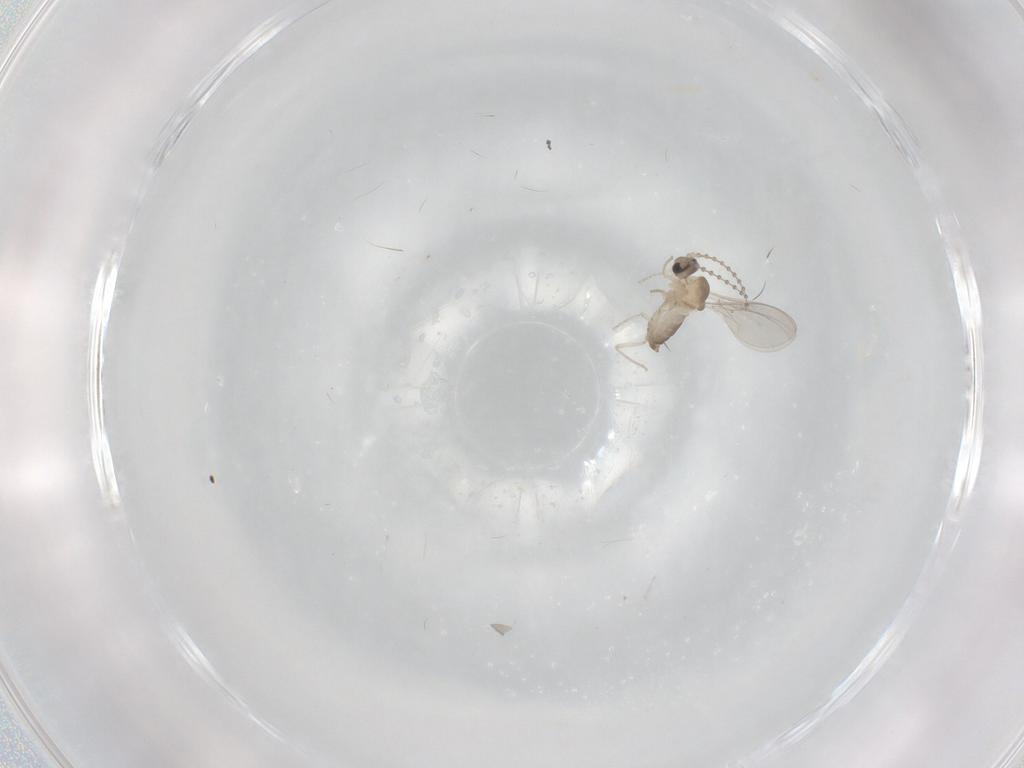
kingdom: Animalia
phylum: Arthropoda
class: Insecta
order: Diptera
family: Cecidomyiidae
